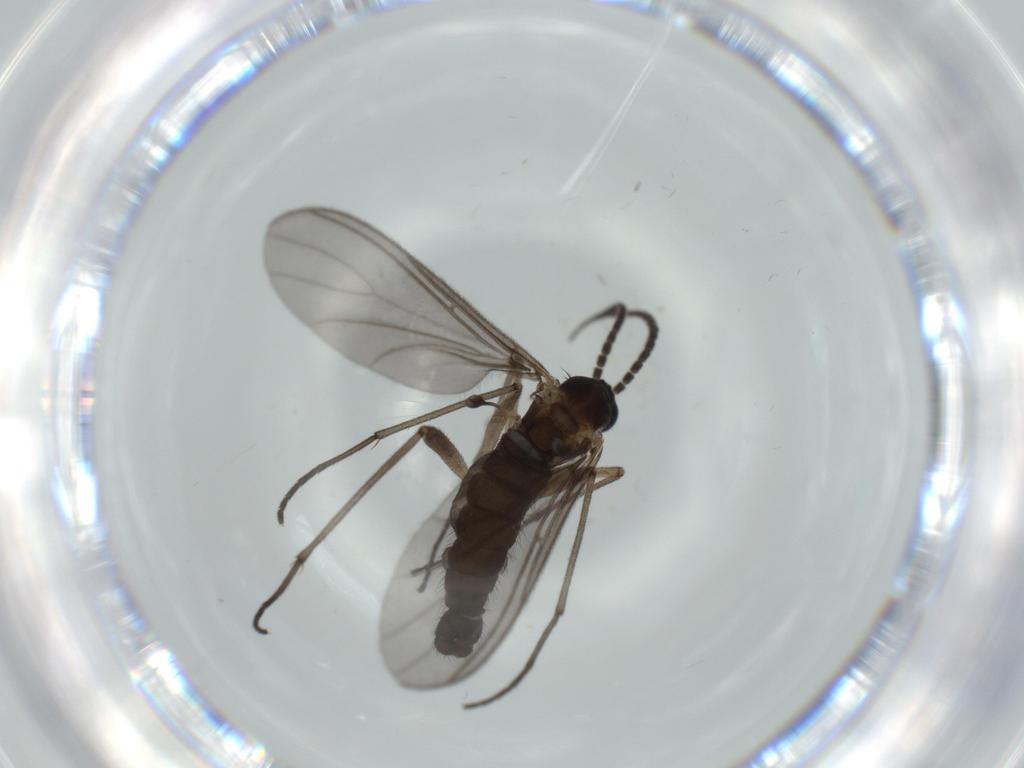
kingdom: Animalia
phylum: Arthropoda
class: Insecta
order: Diptera
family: Sciaridae
